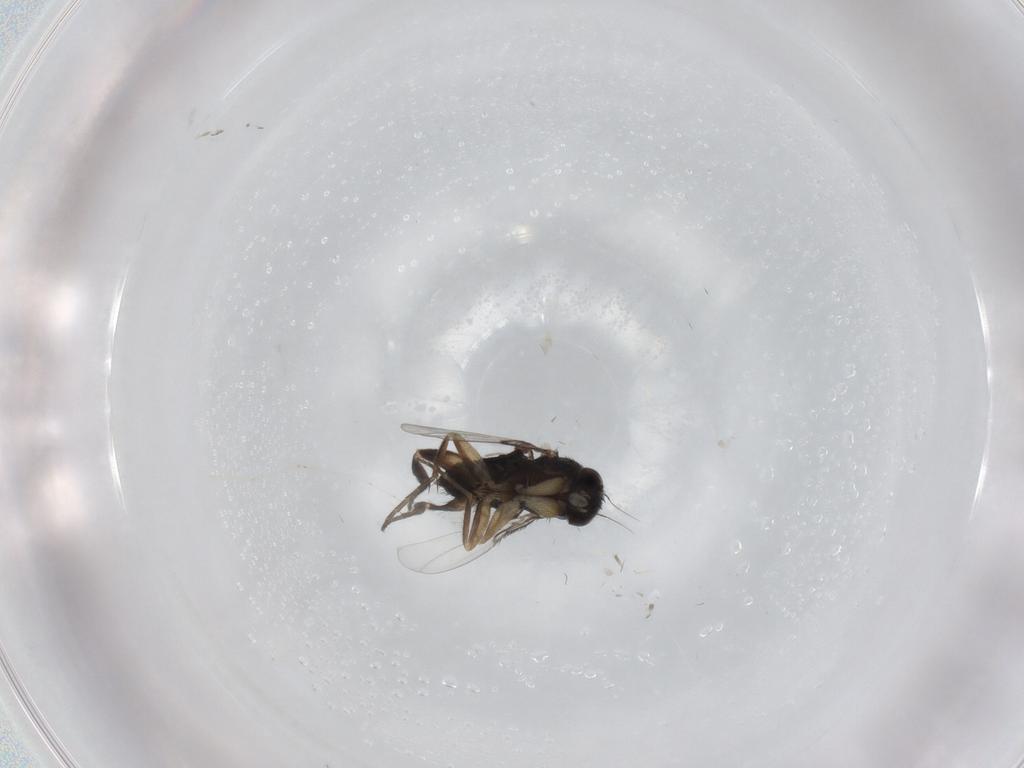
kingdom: Animalia
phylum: Arthropoda
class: Insecta
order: Diptera
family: Phoridae
